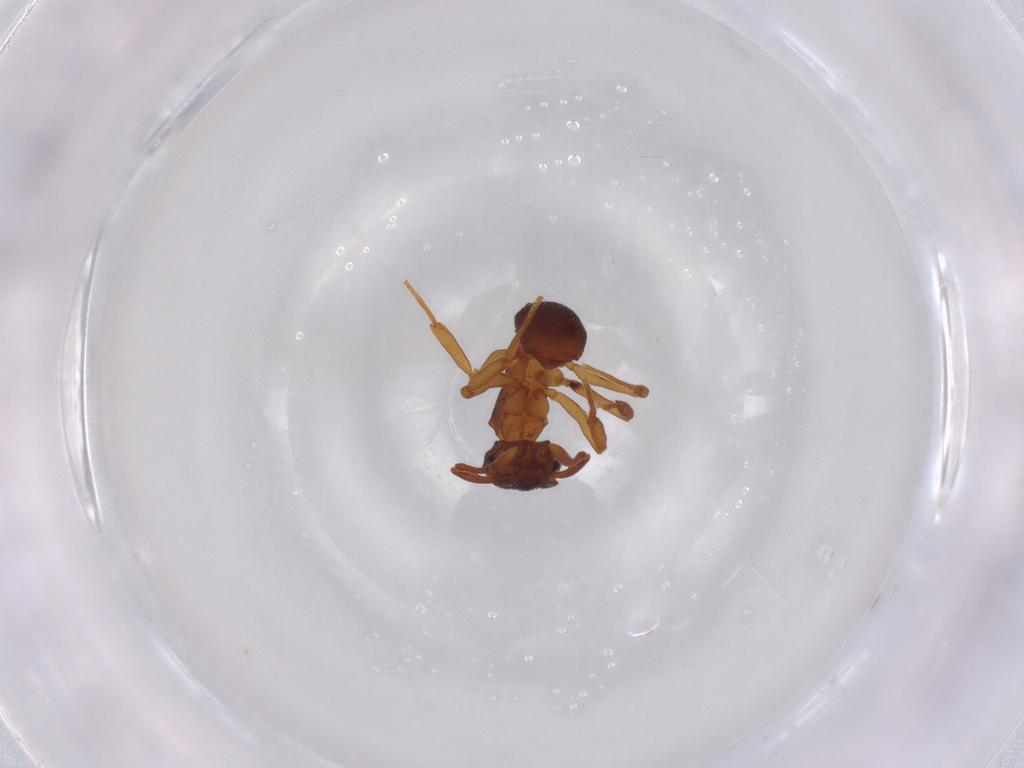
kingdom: Animalia
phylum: Arthropoda
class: Insecta
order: Hymenoptera
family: Formicidae
